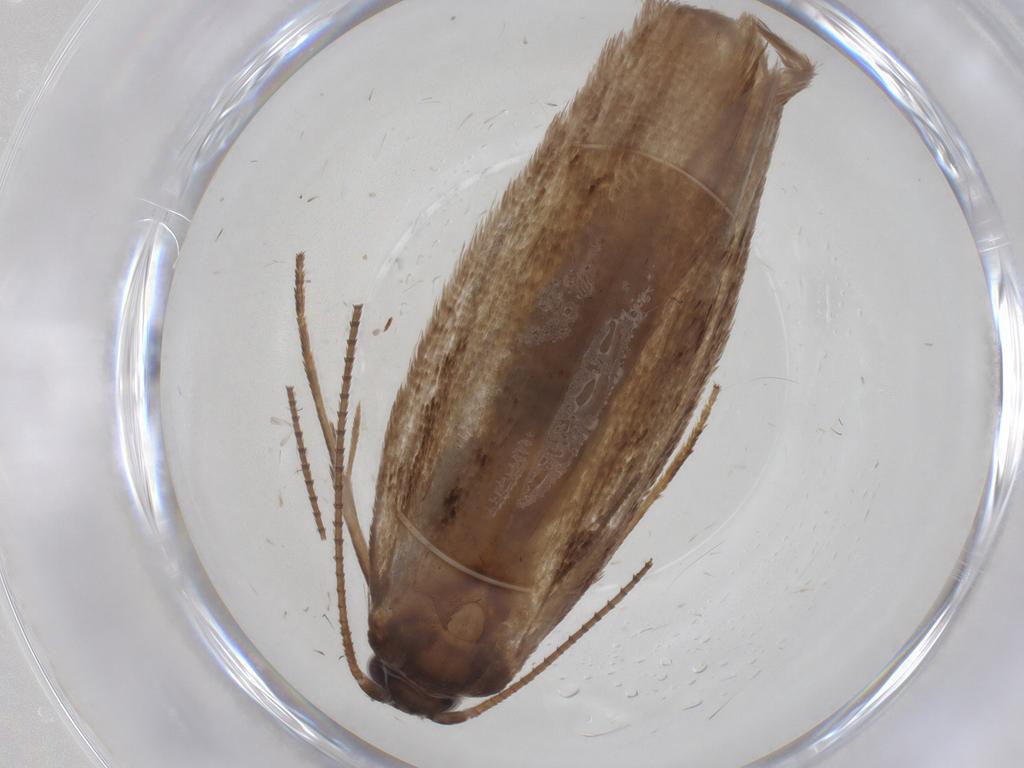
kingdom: Animalia
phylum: Arthropoda
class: Insecta
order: Lepidoptera
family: Roeslerstammiidae
